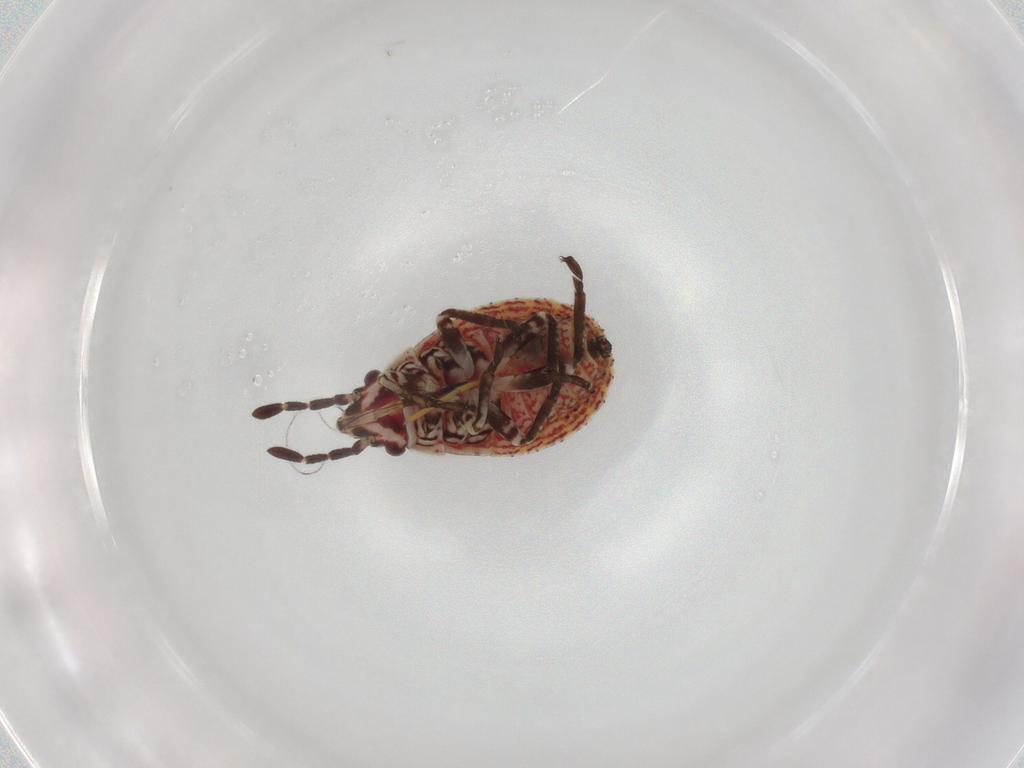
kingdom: Animalia
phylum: Arthropoda
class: Insecta
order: Hemiptera
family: Lygaeidae
